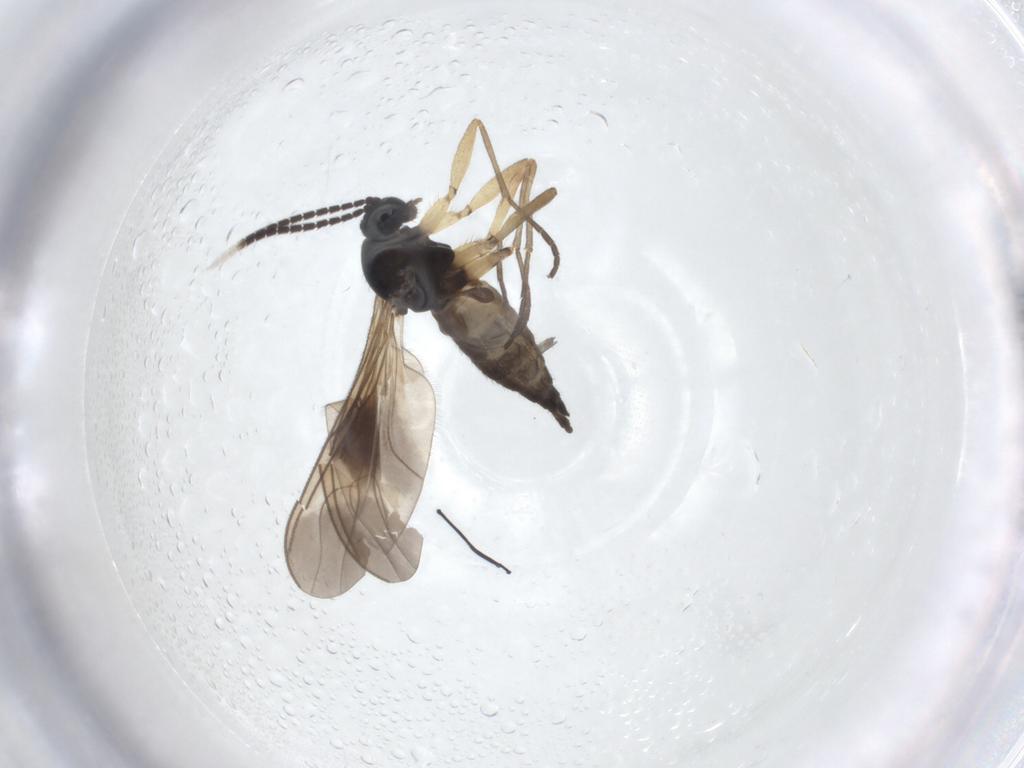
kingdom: Animalia
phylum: Arthropoda
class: Insecta
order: Diptera
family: Sciaridae
